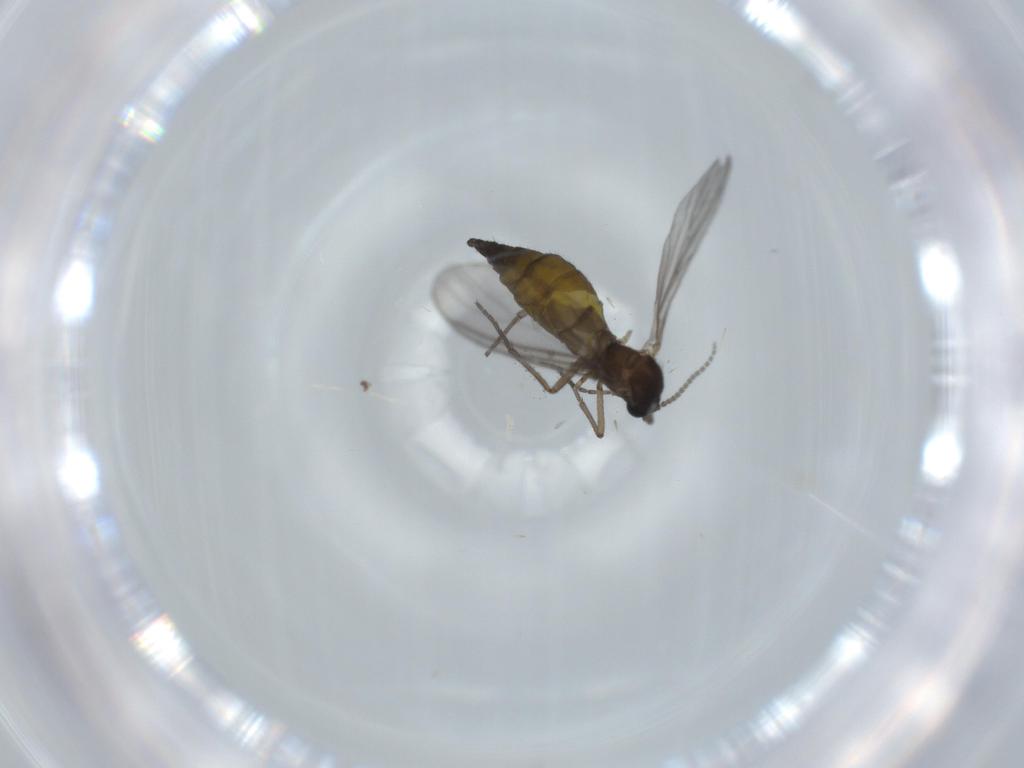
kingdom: Animalia
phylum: Arthropoda
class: Insecta
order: Diptera
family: Sciaridae
